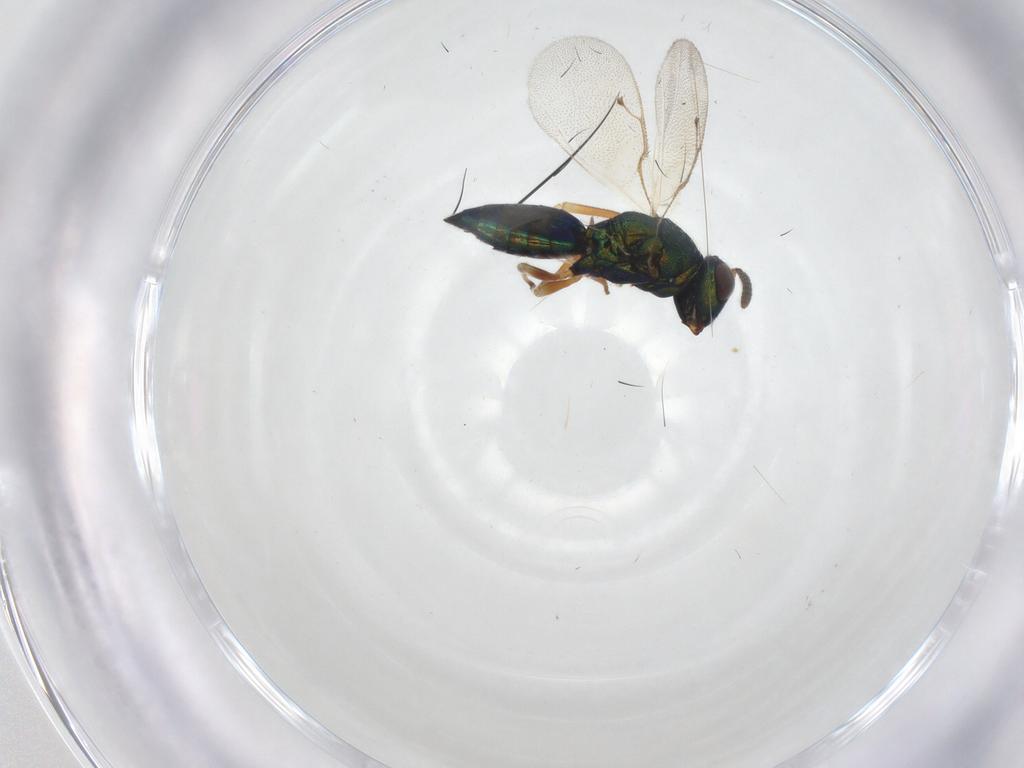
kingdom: Animalia
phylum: Arthropoda
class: Insecta
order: Hymenoptera
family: Pteromalidae
